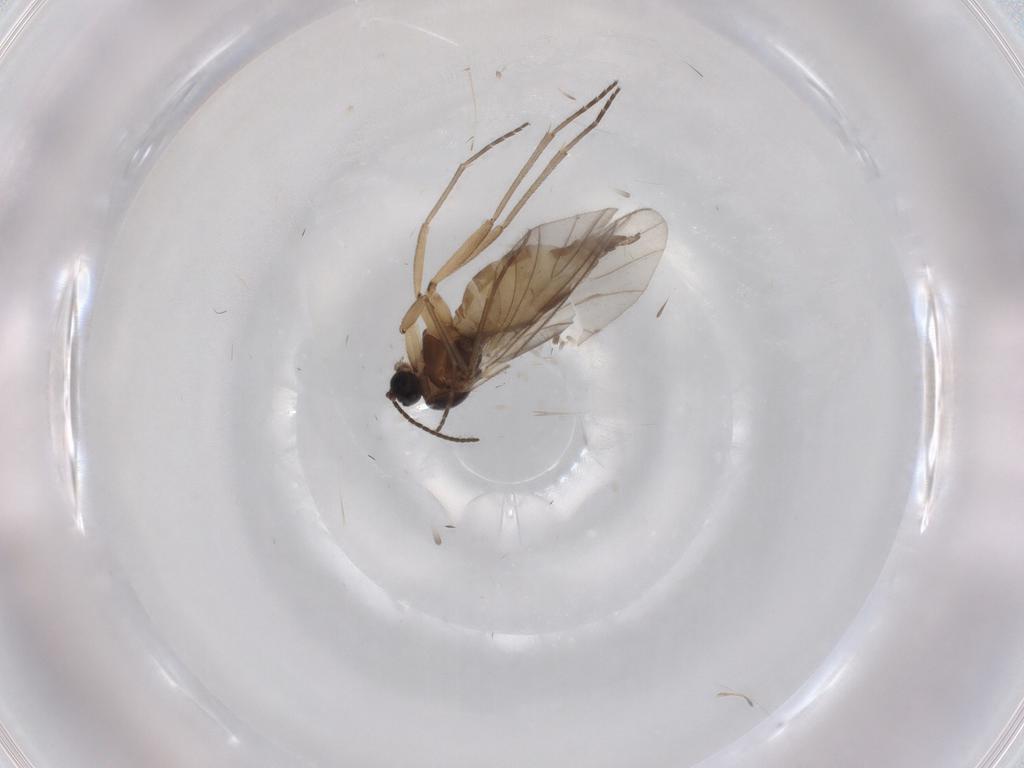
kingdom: Animalia
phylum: Arthropoda
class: Insecta
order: Diptera
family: Sciaridae
